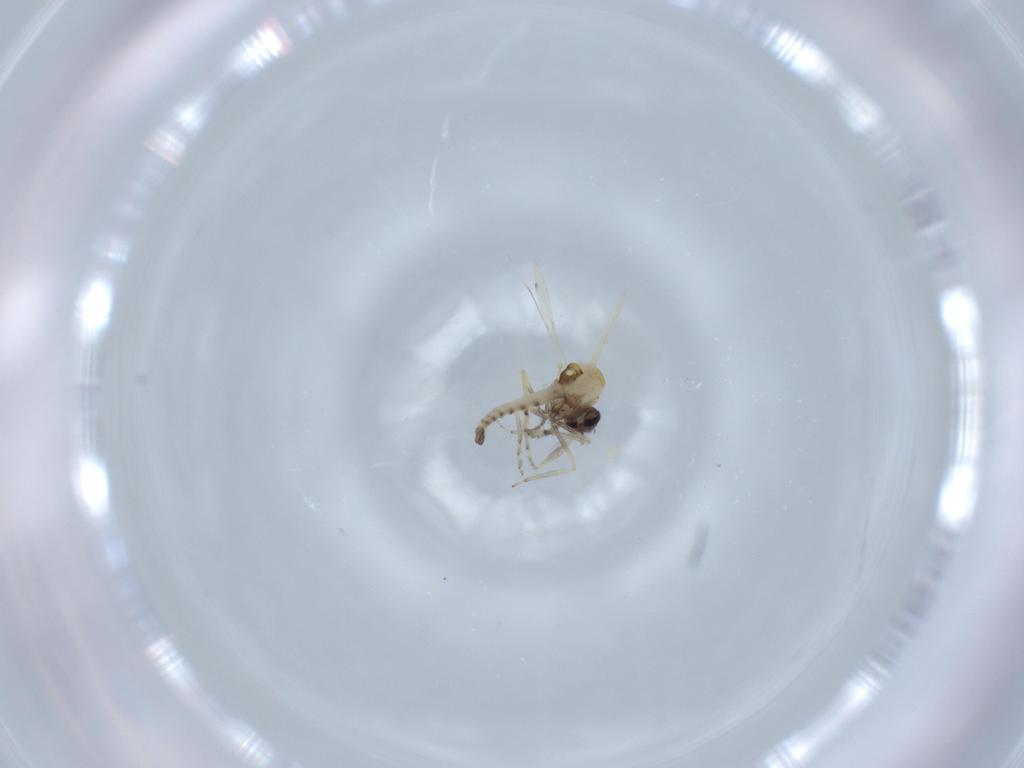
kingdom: Animalia
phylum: Arthropoda
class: Insecta
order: Diptera
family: Ceratopogonidae
